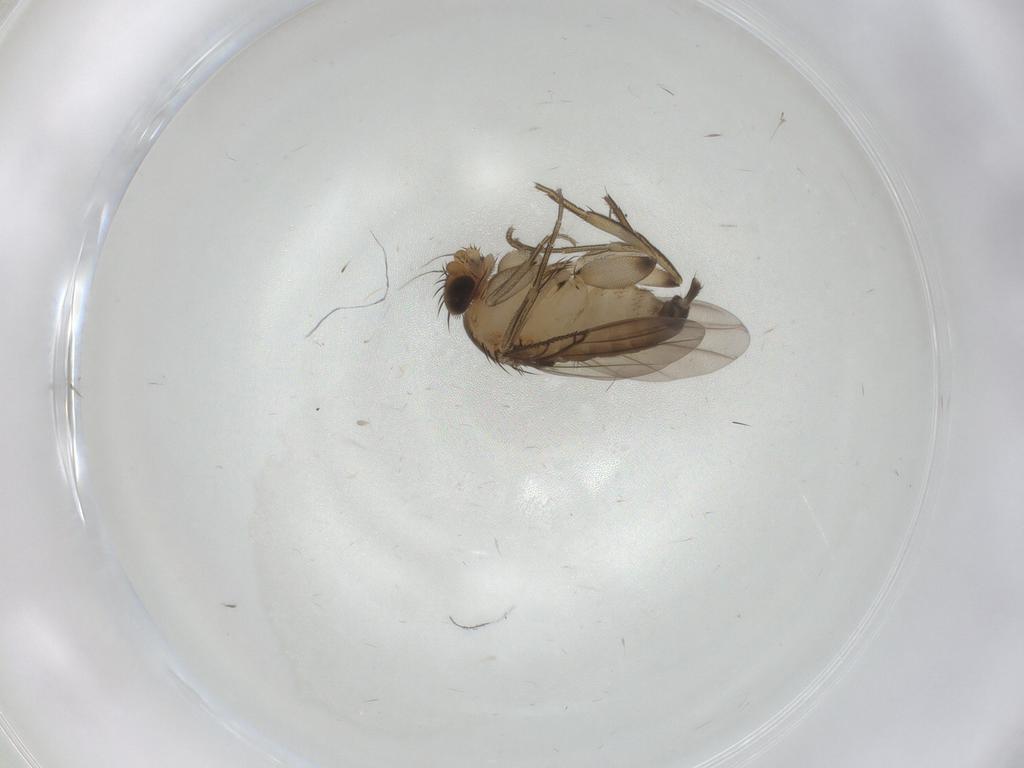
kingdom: Animalia
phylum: Arthropoda
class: Insecta
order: Diptera
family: Phoridae
